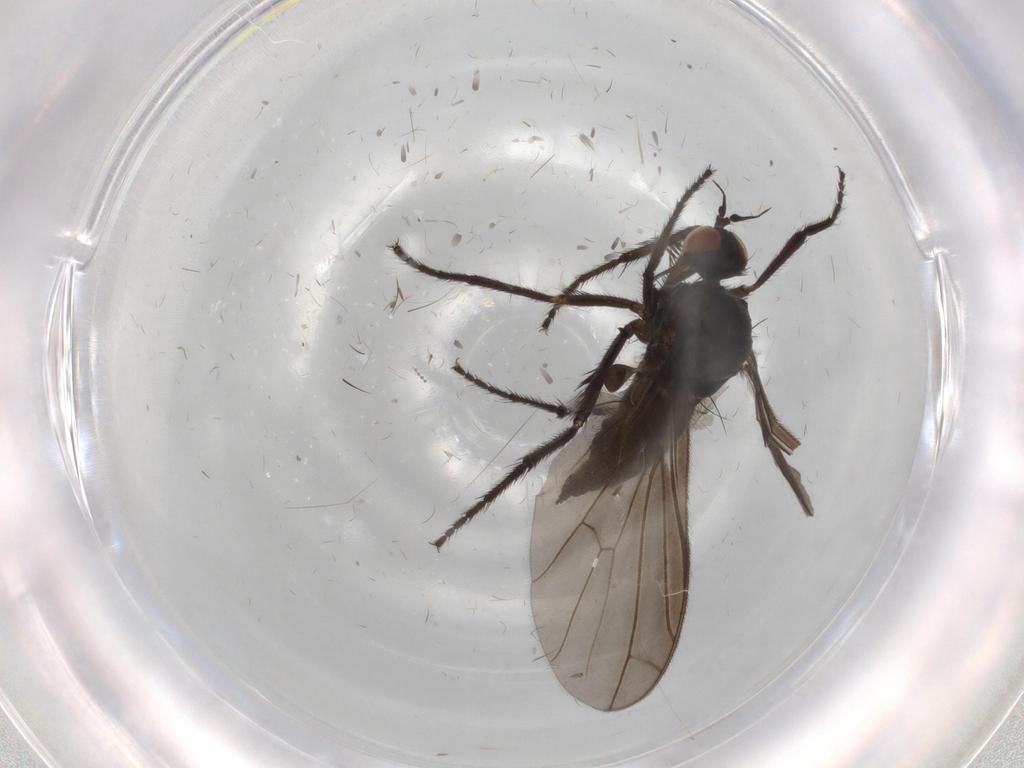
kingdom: Animalia
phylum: Arthropoda
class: Insecta
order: Diptera
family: Empididae
